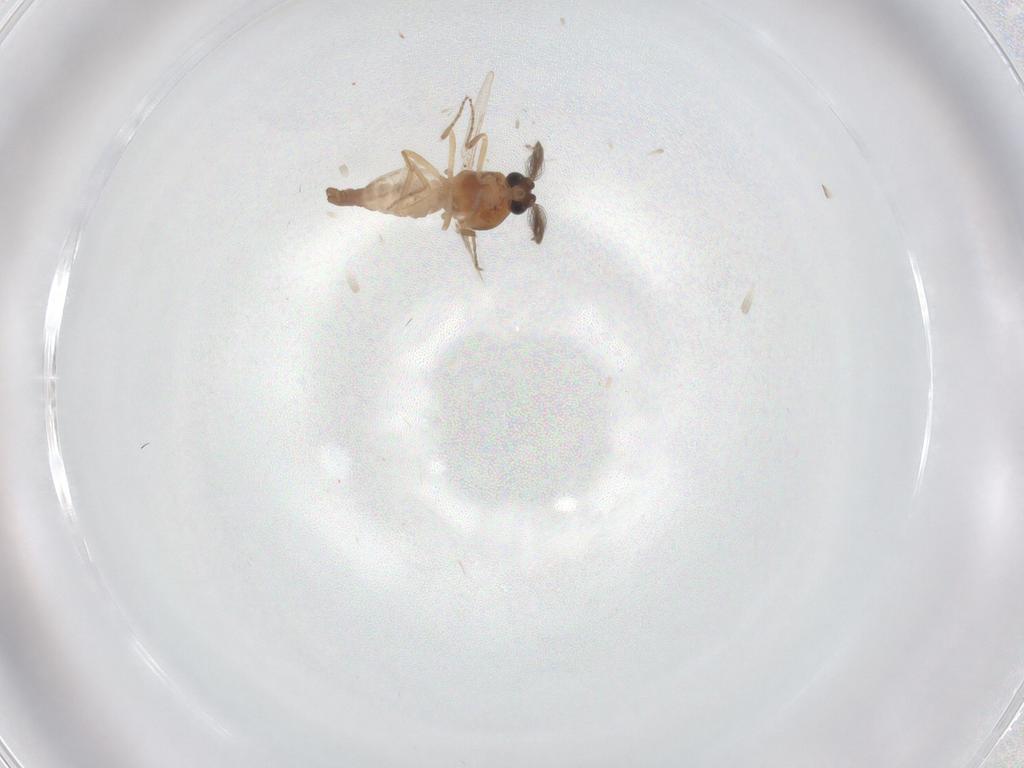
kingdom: Animalia
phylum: Arthropoda
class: Insecta
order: Diptera
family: Ceratopogonidae
